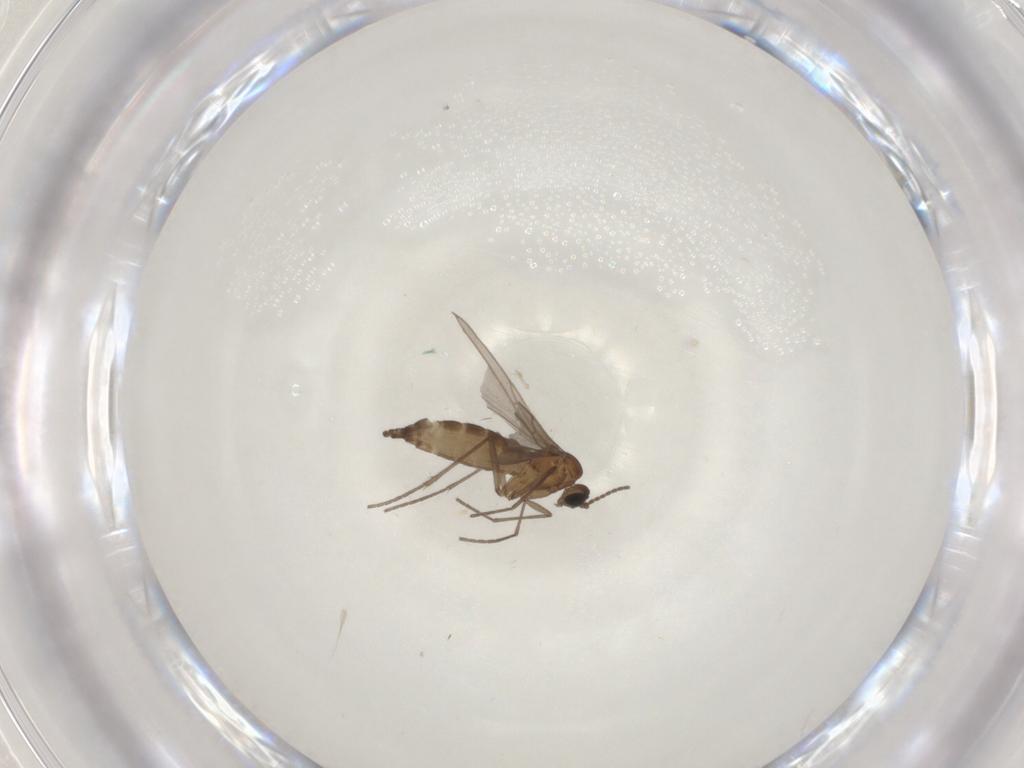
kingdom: Animalia
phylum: Arthropoda
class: Insecta
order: Diptera
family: Sciaridae
